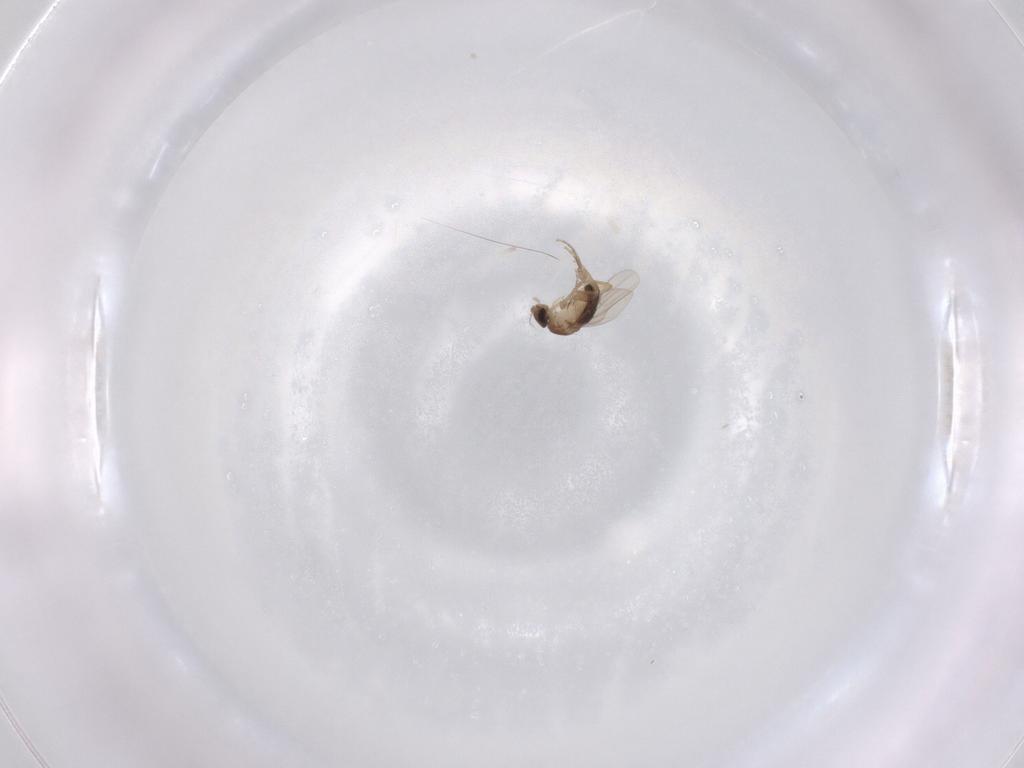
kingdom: Animalia
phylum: Arthropoda
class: Insecta
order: Diptera
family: Phoridae
